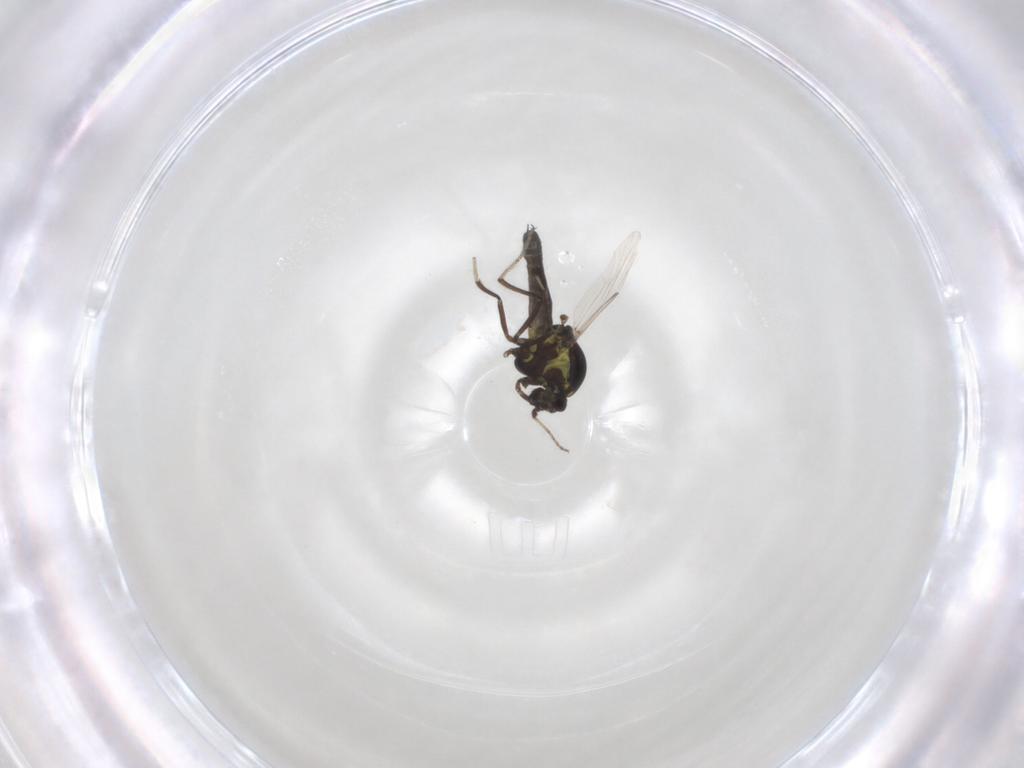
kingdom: Animalia
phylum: Arthropoda
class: Insecta
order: Diptera
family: Ceratopogonidae
